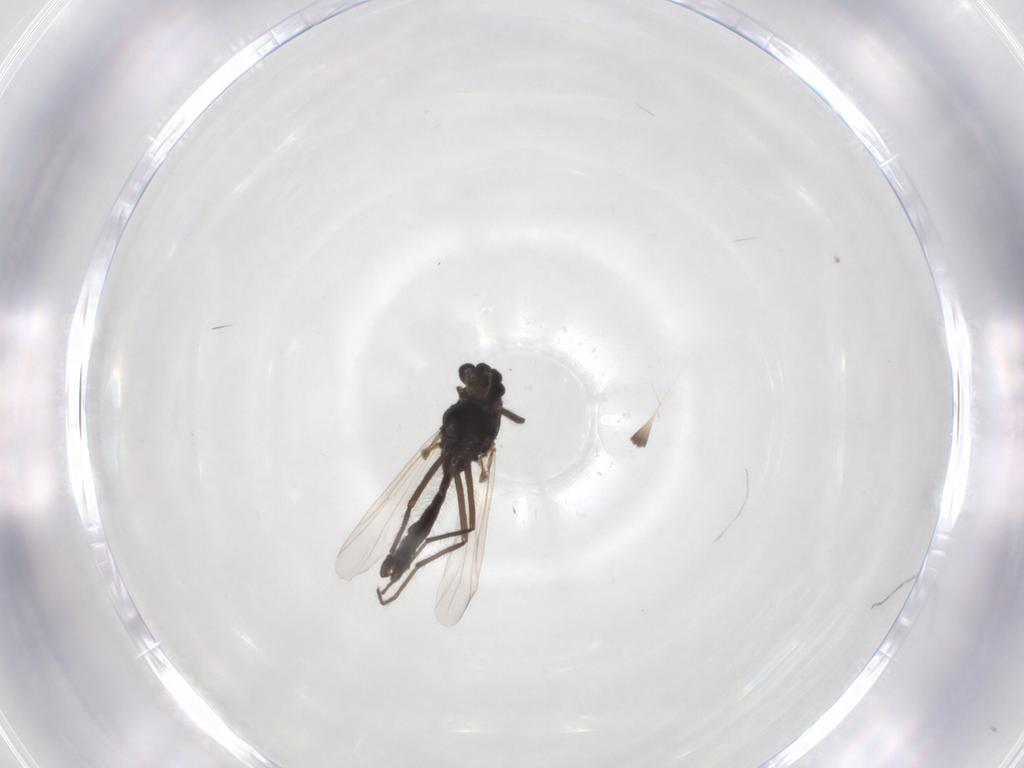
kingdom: Animalia
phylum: Arthropoda
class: Insecta
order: Diptera
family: Chironomidae
